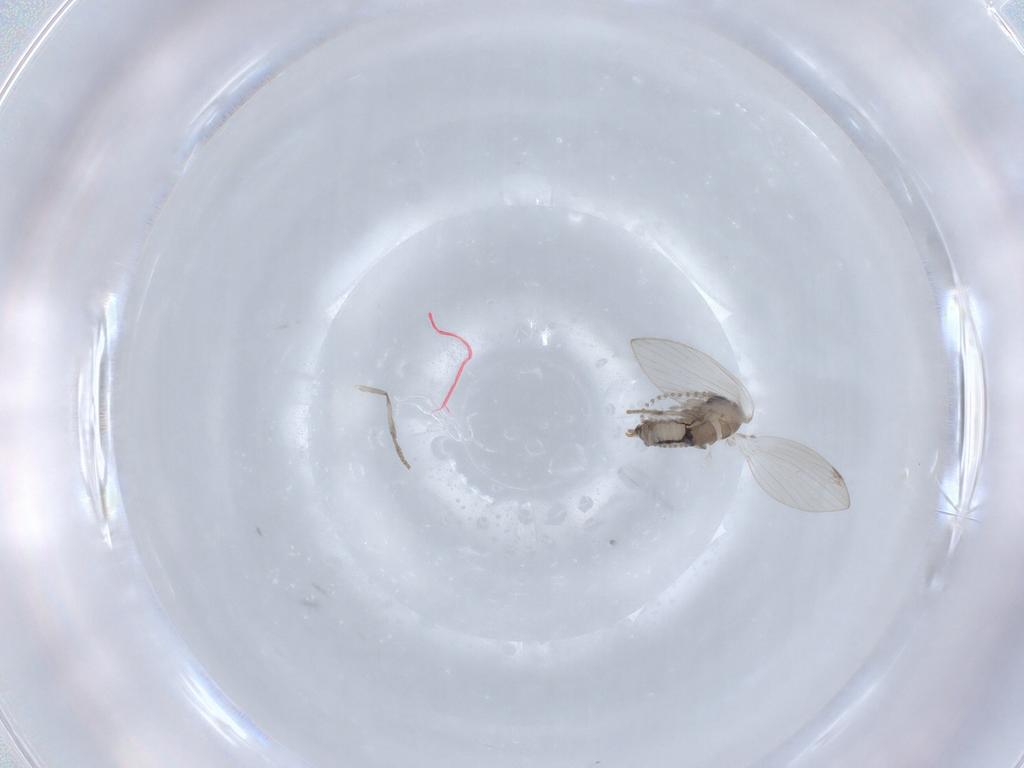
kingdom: Animalia
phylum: Arthropoda
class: Insecta
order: Diptera
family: Psychodidae
